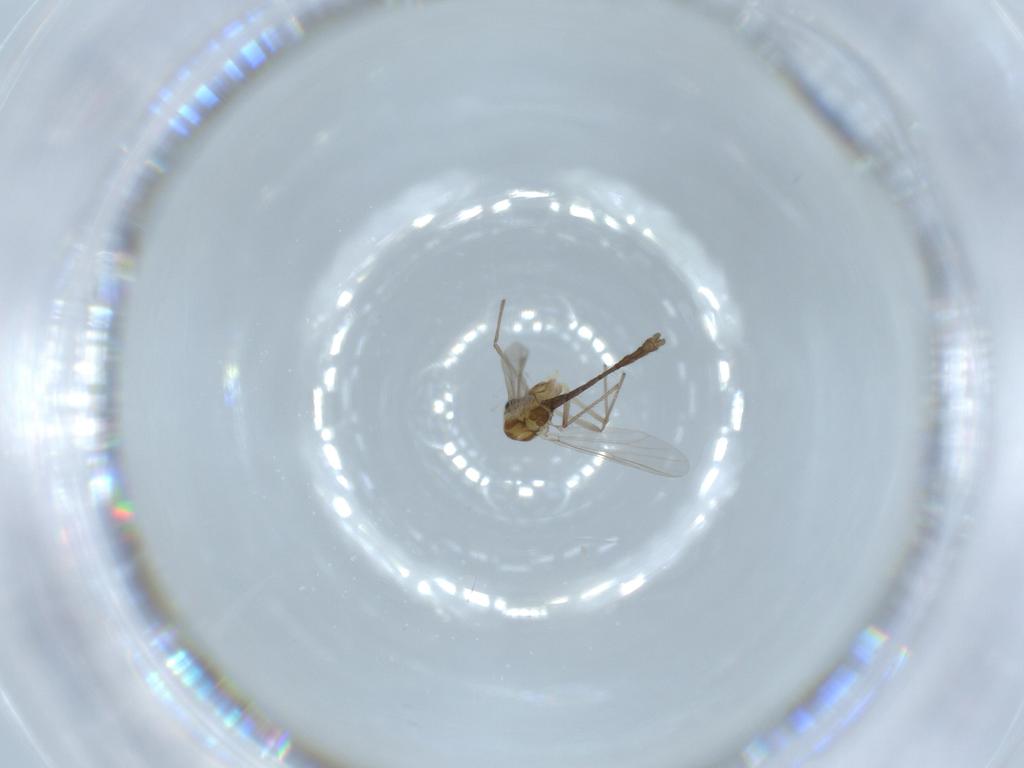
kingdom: Animalia
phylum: Arthropoda
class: Insecta
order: Diptera
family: Chironomidae
